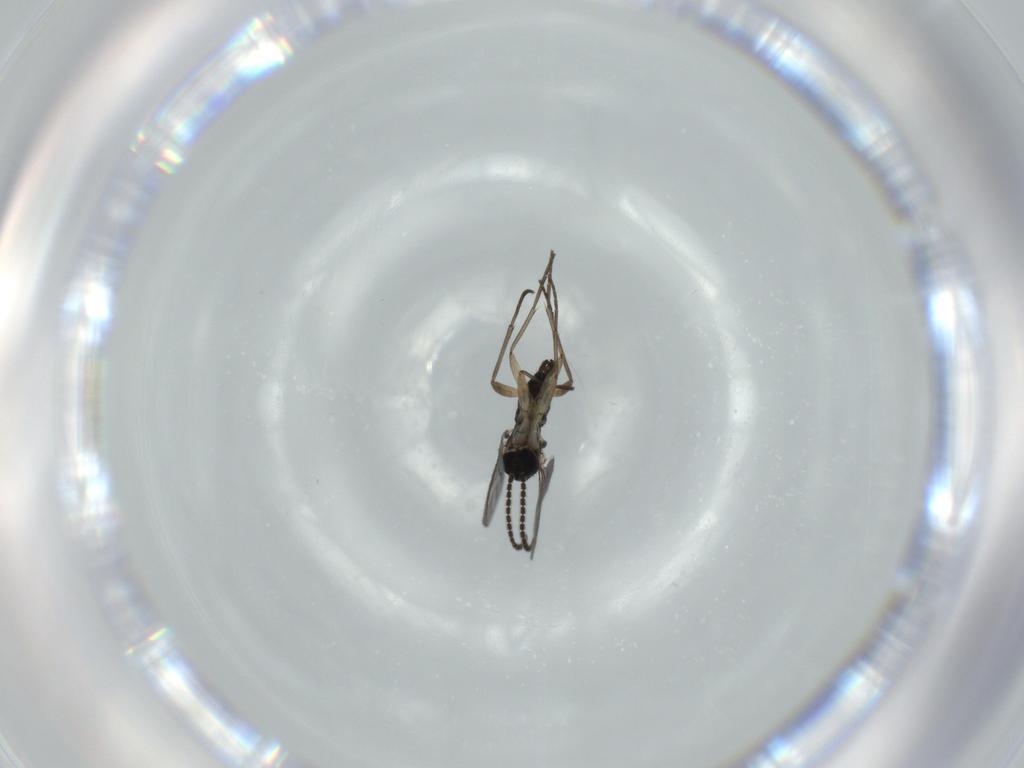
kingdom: Animalia
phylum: Arthropoda
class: Insecta
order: Diptera
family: Sciaridae
